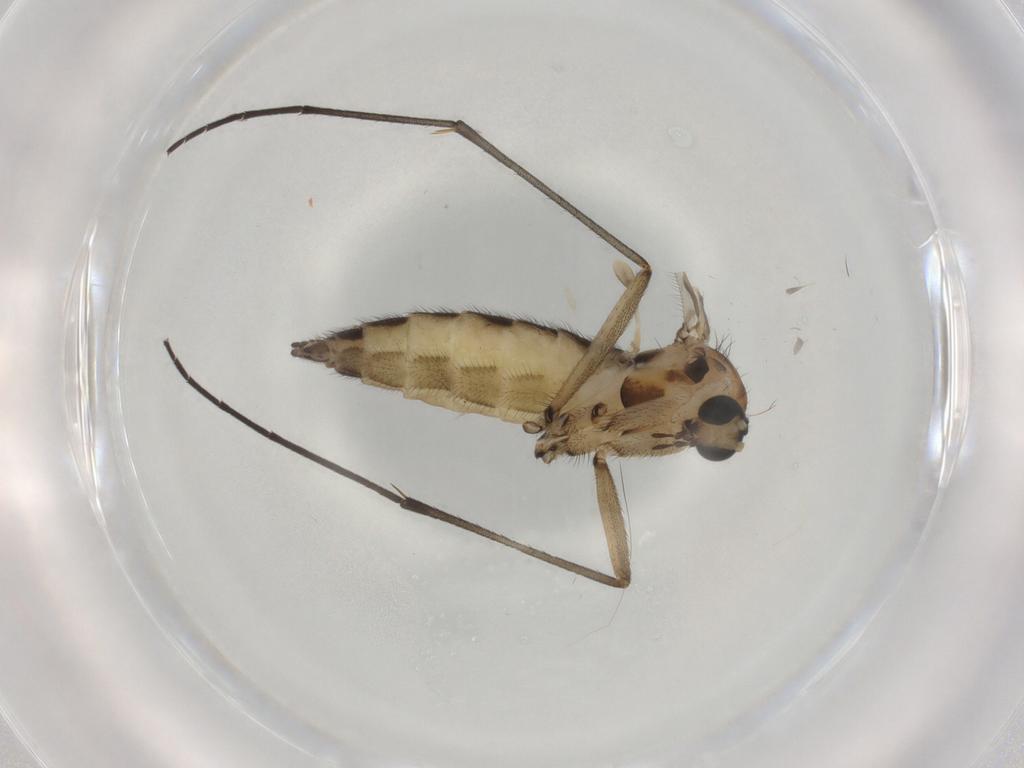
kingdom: Animalia
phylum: Arthropoda
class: Insecta
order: Diptera
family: Sciaridae
